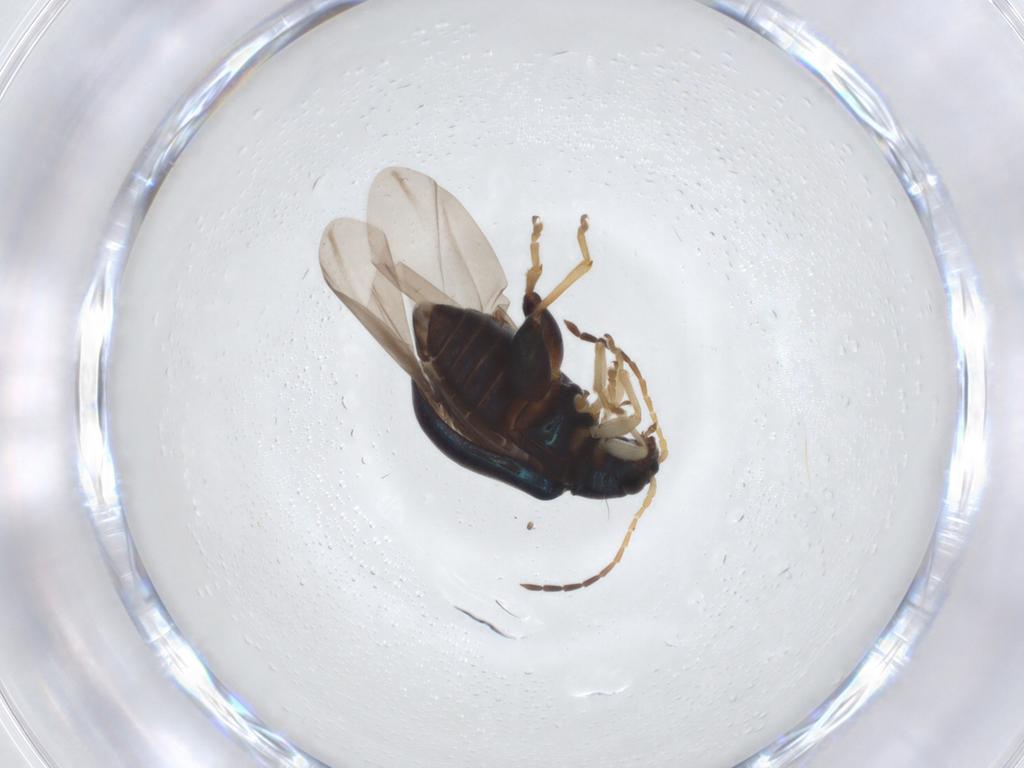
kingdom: Animalia
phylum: Arthropoda
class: Insecta
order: Coleoptera
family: Chrysomelidae
